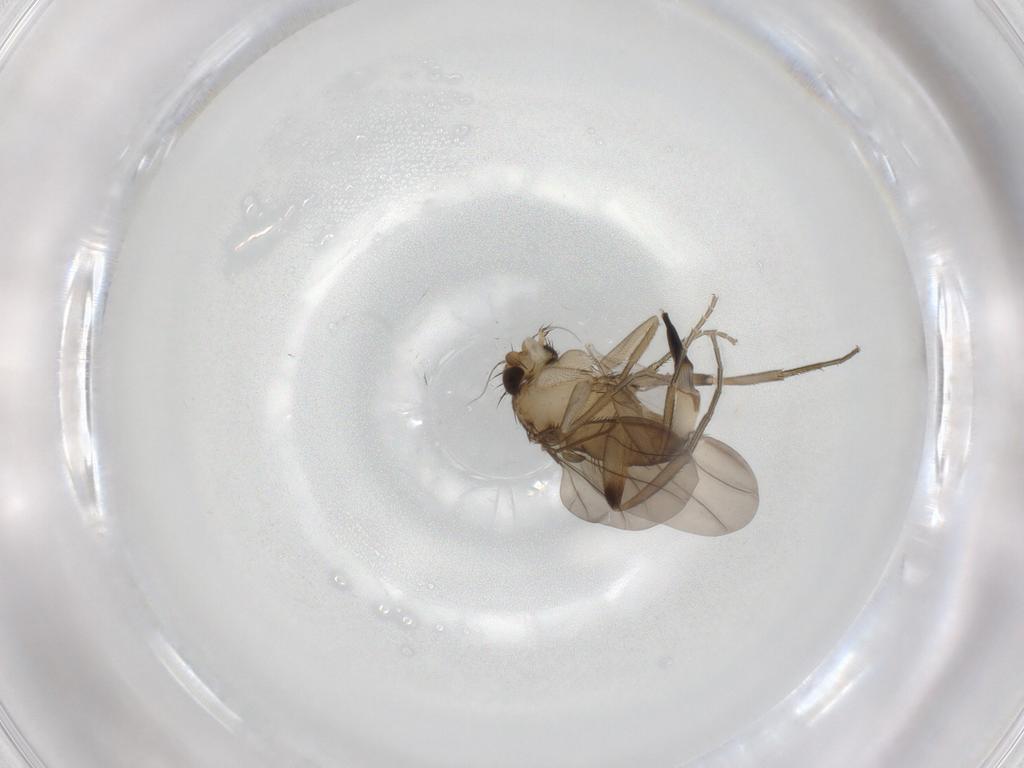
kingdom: Animalia
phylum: Arthropoda
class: Insecta
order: Diptera
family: Phoridae
